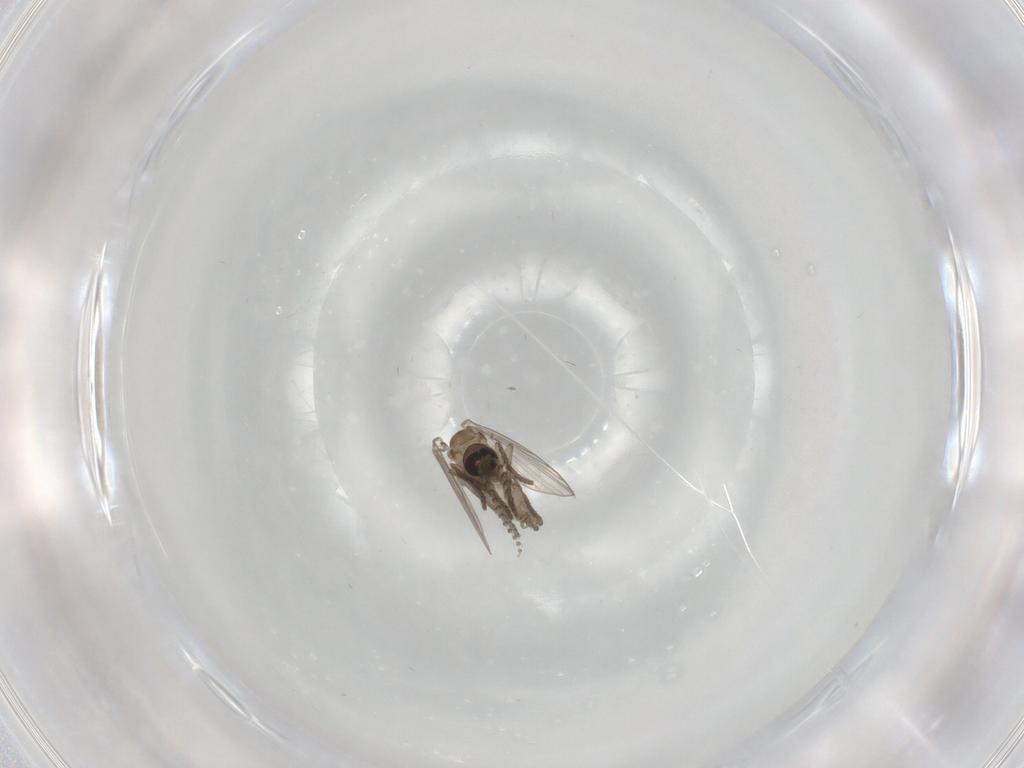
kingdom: Animalia
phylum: Arthropoda
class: Insecta
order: Diptera
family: Psychodidae
